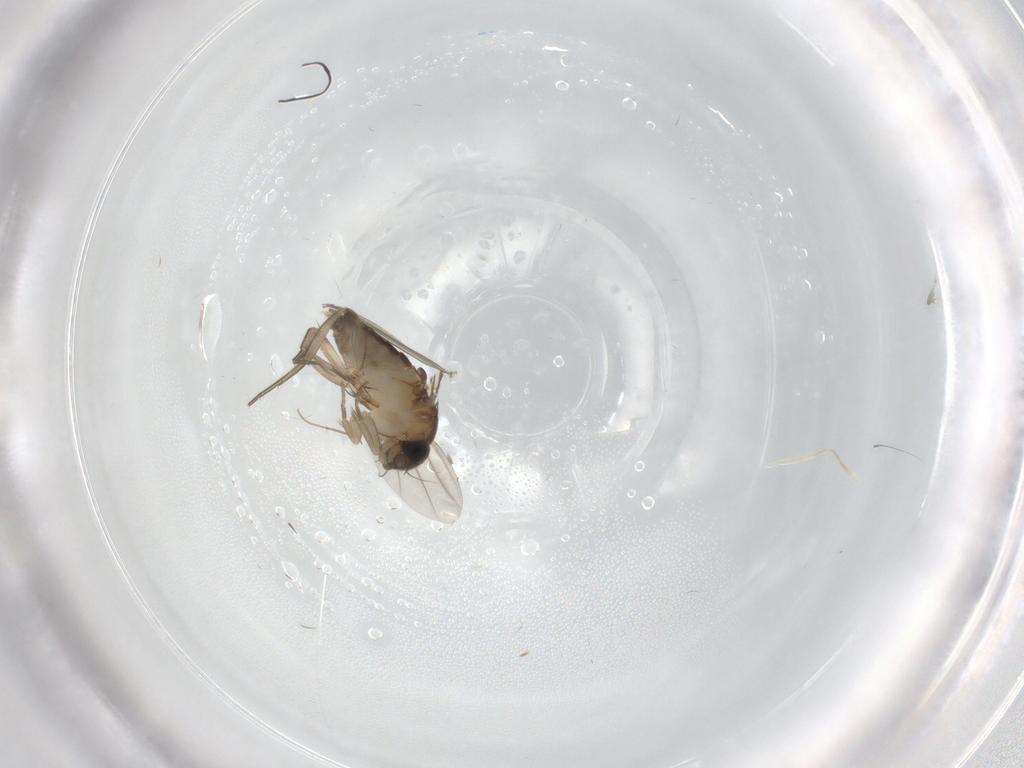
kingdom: Animalia
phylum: Arthropoda
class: Insecta
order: Diptera
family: Phoridae
